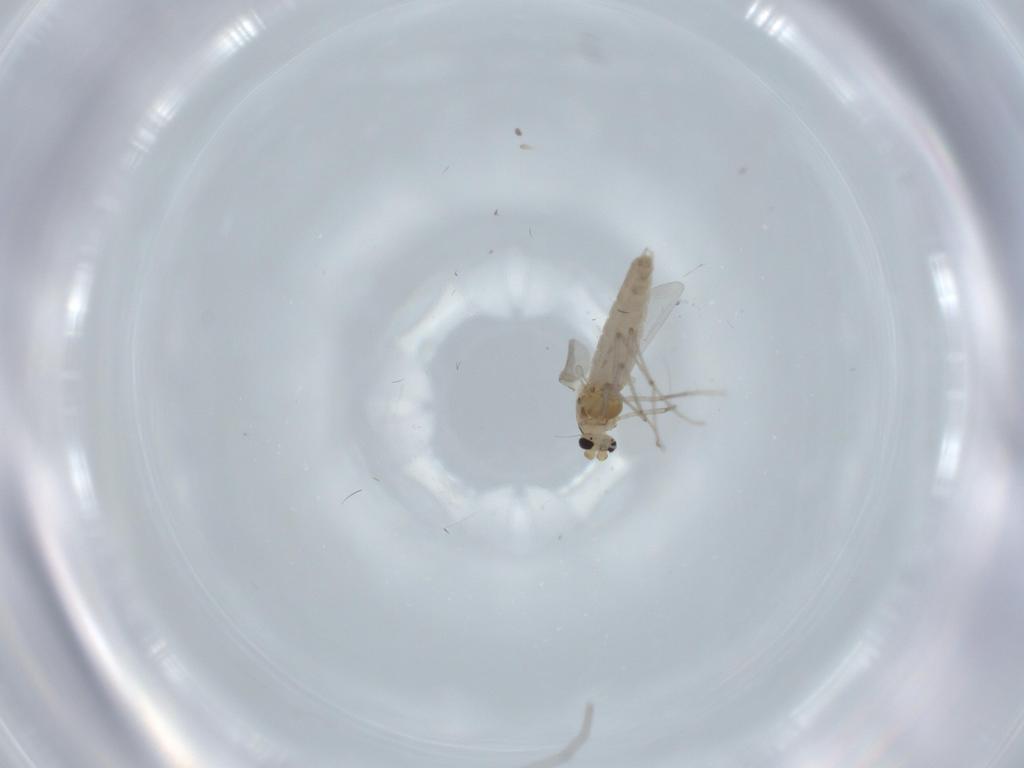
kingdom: Animalia
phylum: Arthropoda
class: Insecta
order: Diptera
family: Chironomidae
